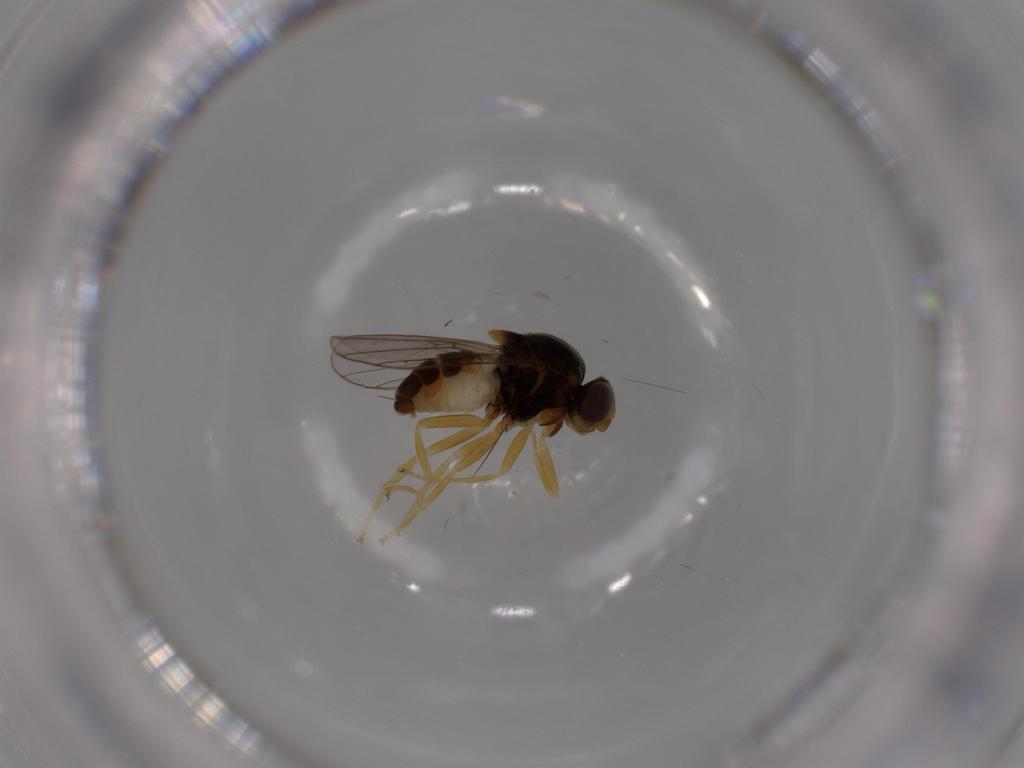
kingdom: Animalia
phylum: Arthropoda
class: Insecta
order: Diptera
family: Chloropidae
